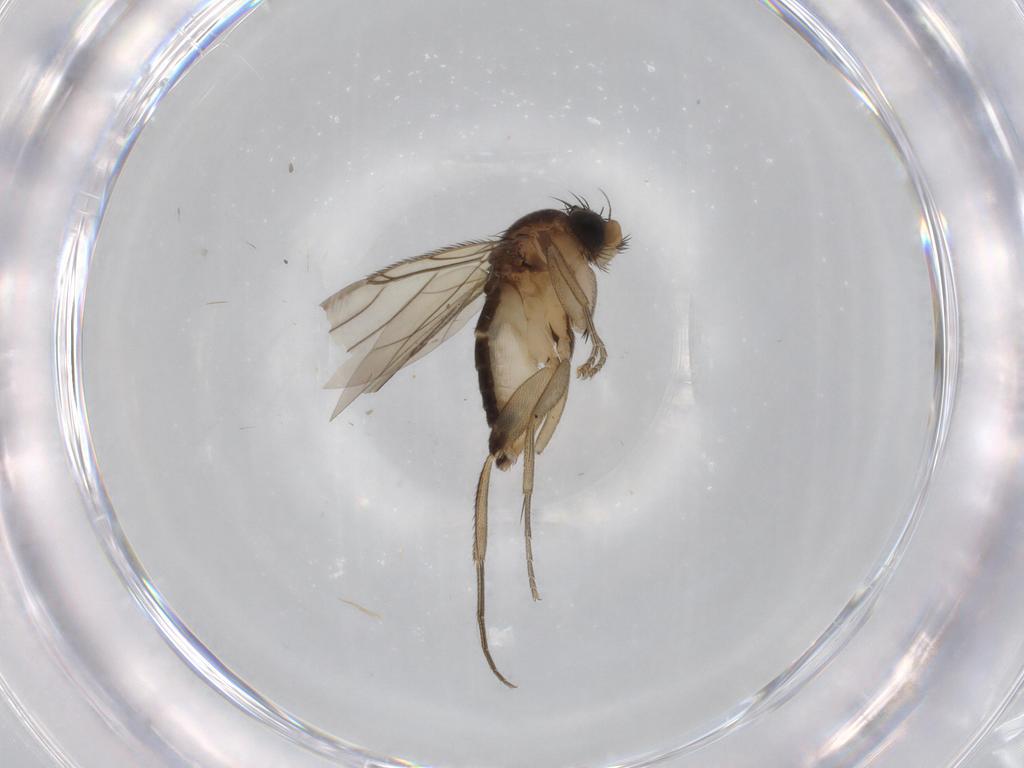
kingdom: Animalia
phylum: Arthropoda
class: Insecta
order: Diptera
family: Phoridae
